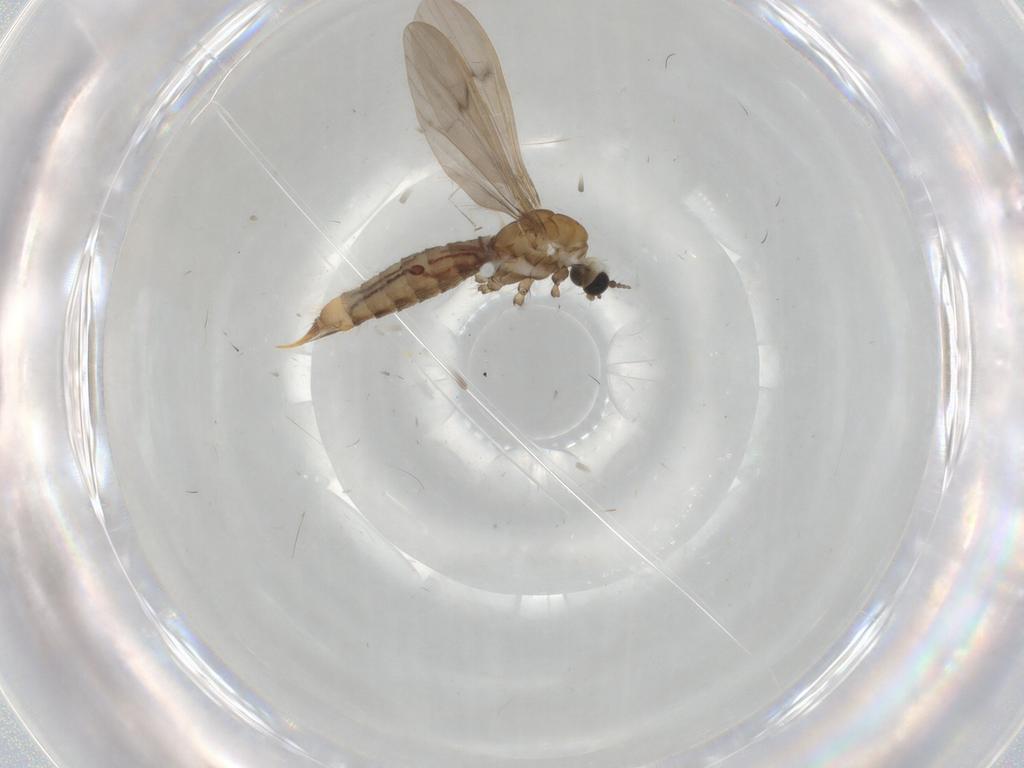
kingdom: Animalia
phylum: Arthropoda
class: Insecta
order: Diptera
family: Limoniidae
